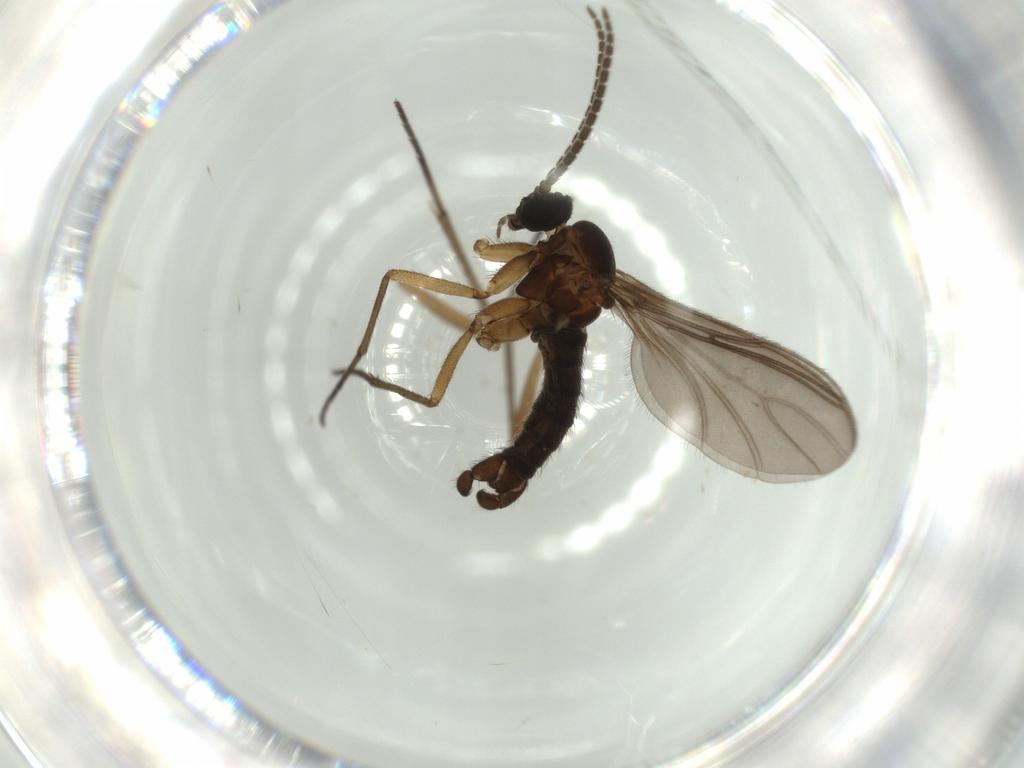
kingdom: Animalia
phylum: Arthropoda
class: Insecta
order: Diptera
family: Sciaridae
